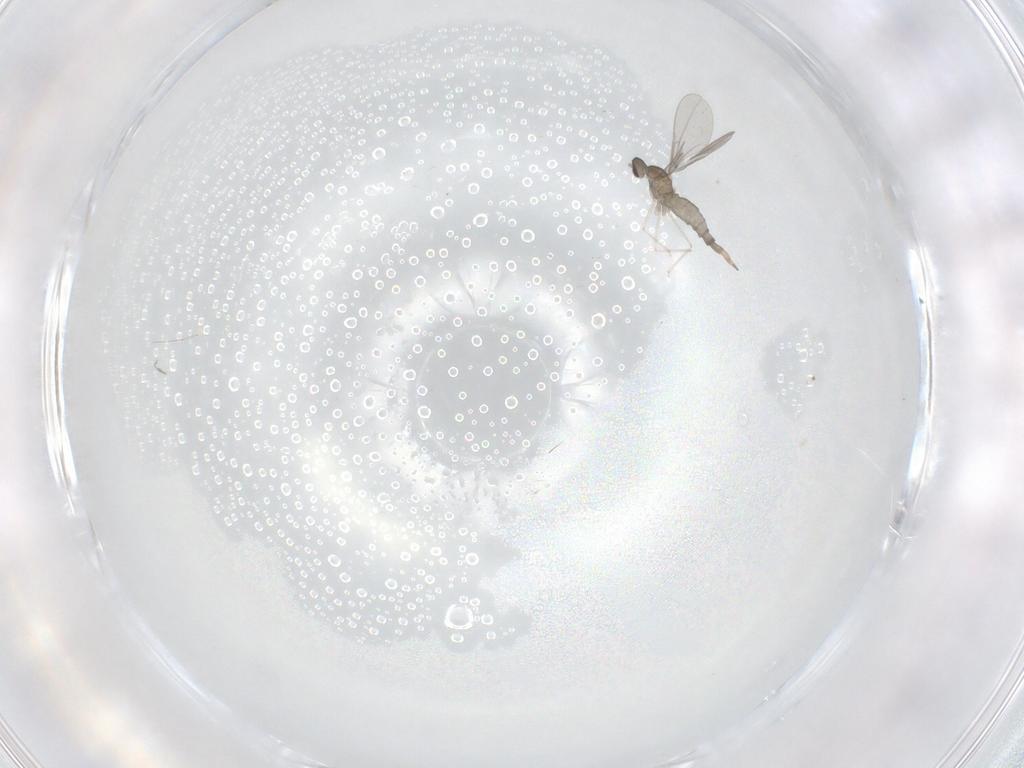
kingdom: Animalia
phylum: Arthropoda
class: Insecta
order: Diptera
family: Cecidomyiidae
